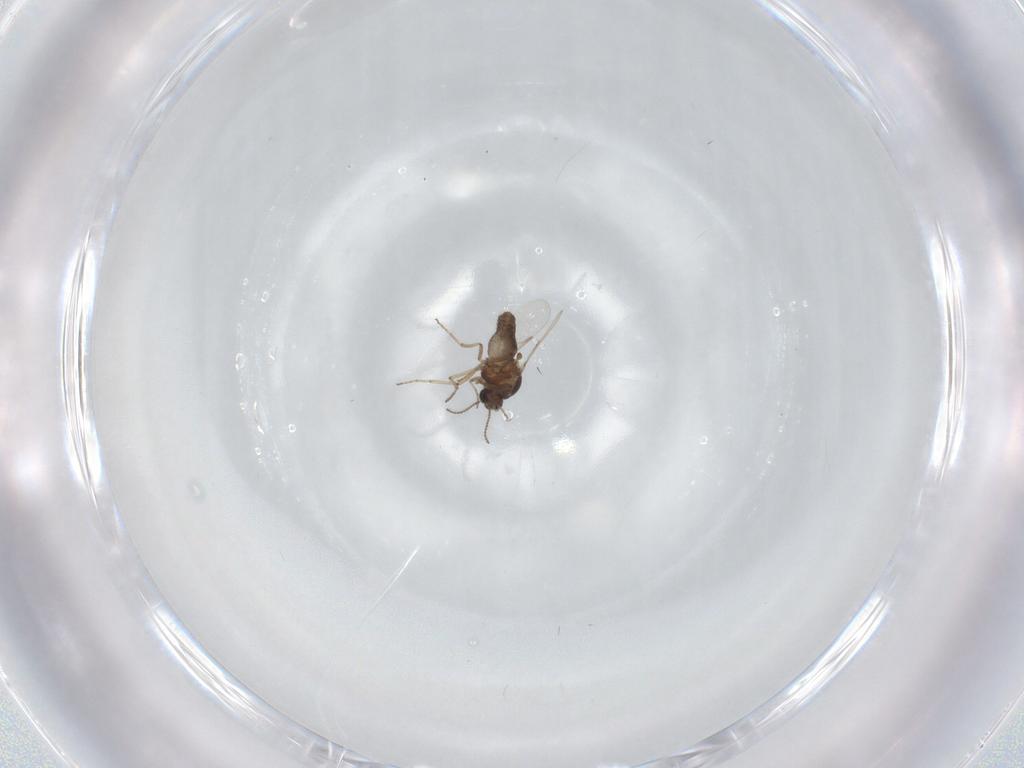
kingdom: Animalia
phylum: Arthropoda
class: Insecta
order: Diptera
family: Ceratopogonidae
